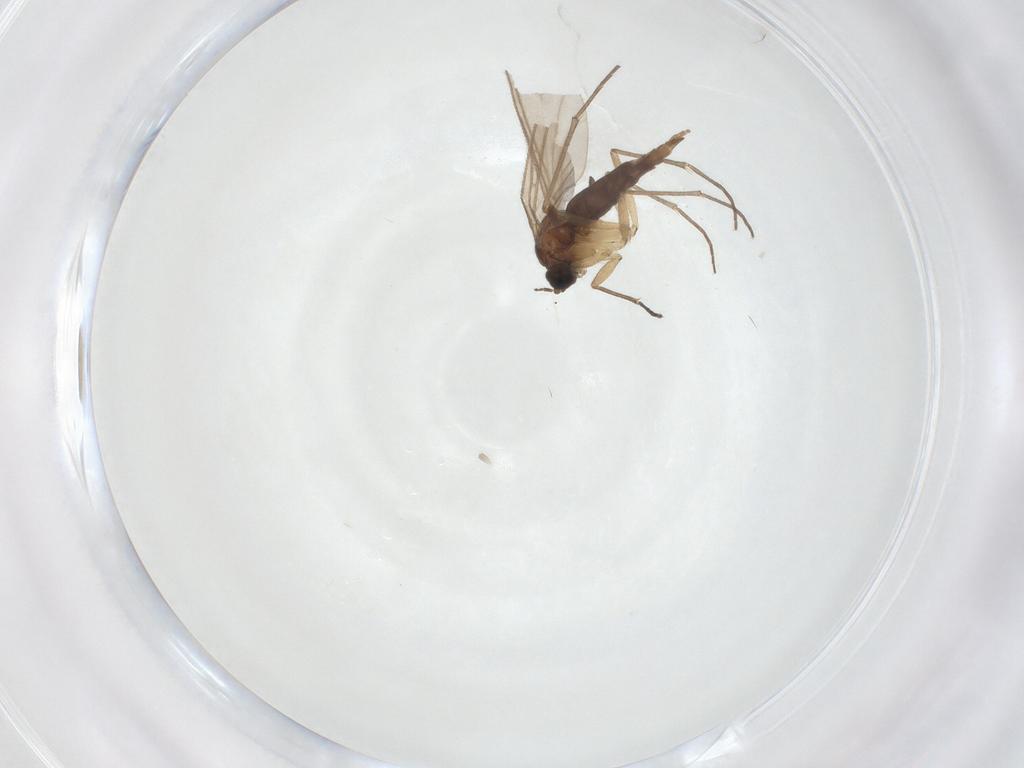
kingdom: Animalia
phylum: Arthropoda
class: Insecta
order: Diptera
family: Sciaridae
